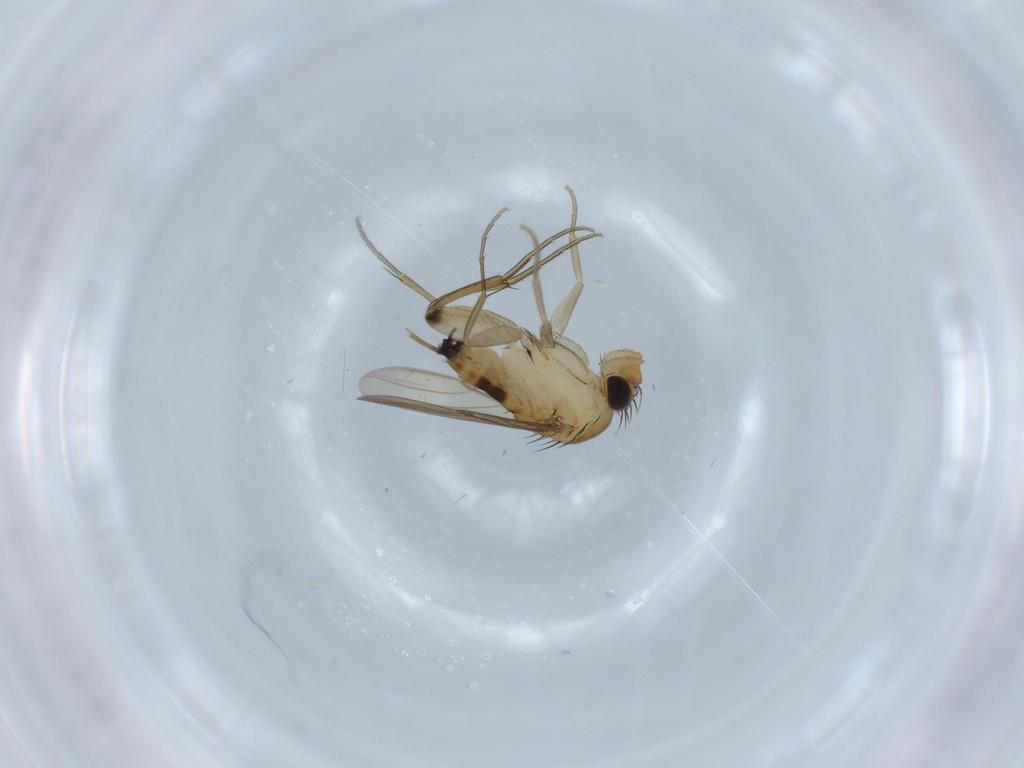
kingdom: Animalia
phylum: Arthropoda
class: Insecta
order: Diptera
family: Phoridae
